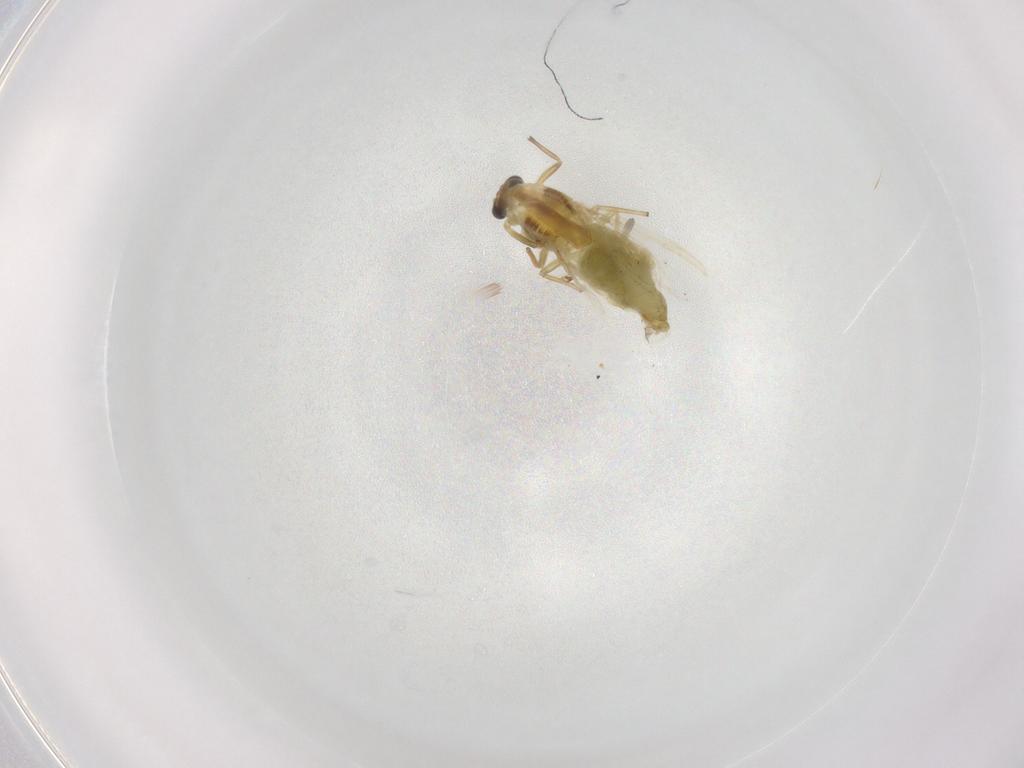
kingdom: Animalia
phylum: Arthropoda
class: Insecta
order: Diptera
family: Chironomidae
